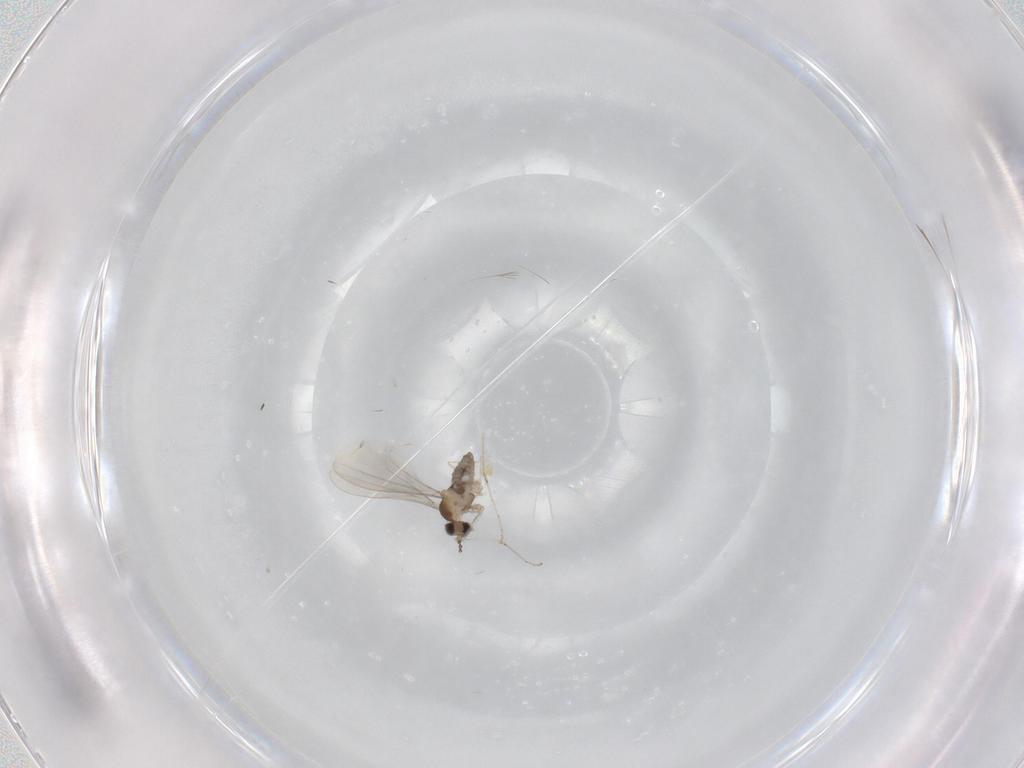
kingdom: Animalia
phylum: Arthropoda
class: Insecta
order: Diptera
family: Cecidomyiidae
